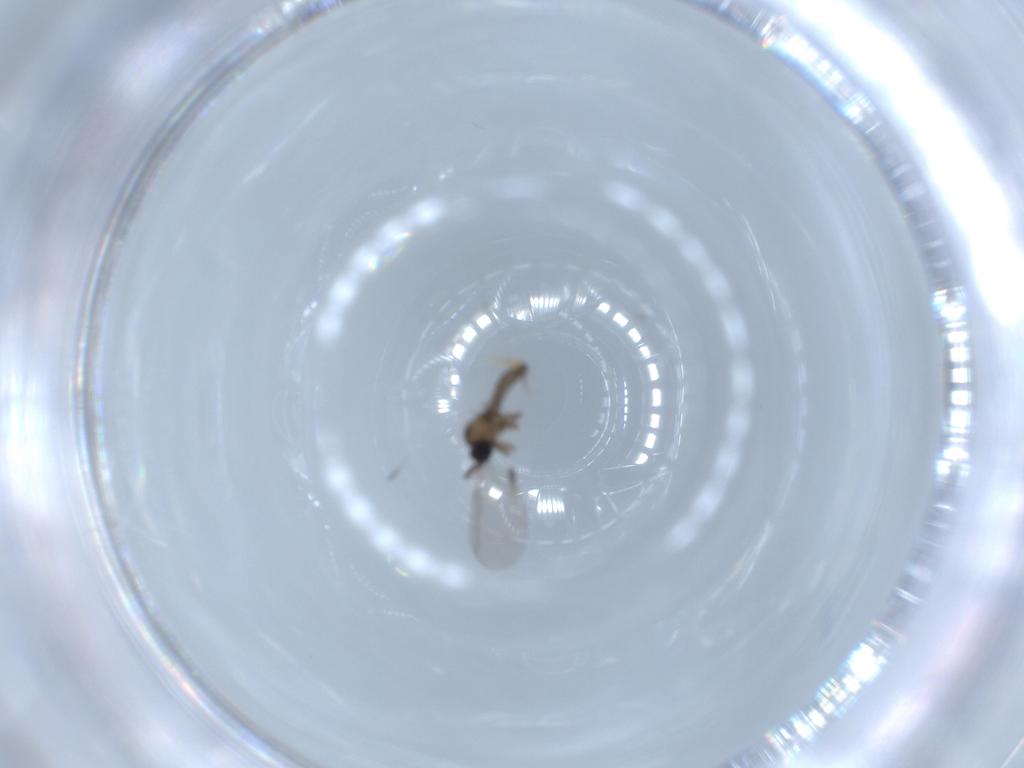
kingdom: Animalia
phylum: Arthropoda
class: Insecta
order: Diptera
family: Sciaridae
